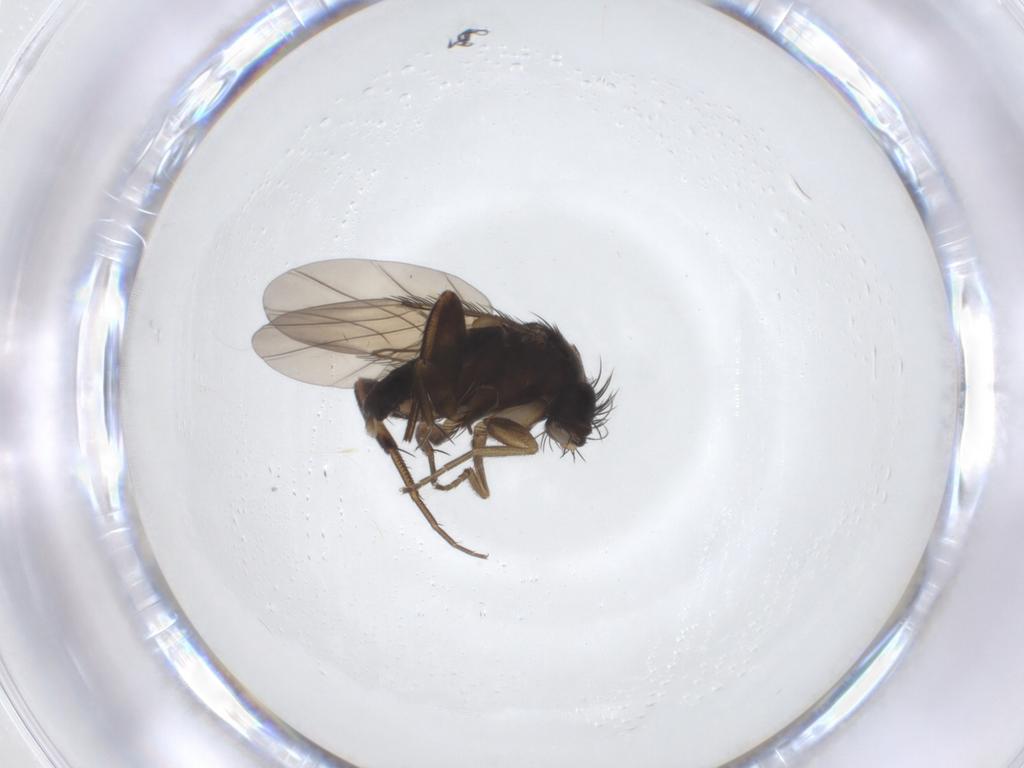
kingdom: Animalia
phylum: Arthropoda
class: Insecta
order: Diptera
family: Phoridae
